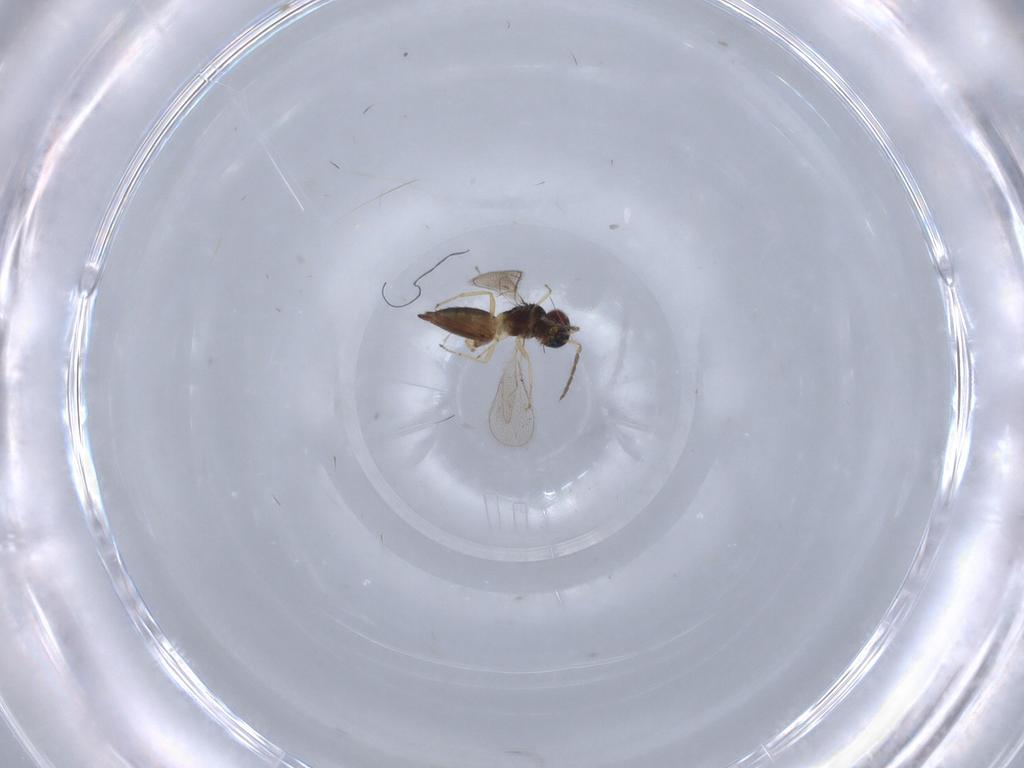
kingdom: Animalia
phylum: Arthropoda
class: Insecta
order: Hymenoptera
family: Eulophidae
